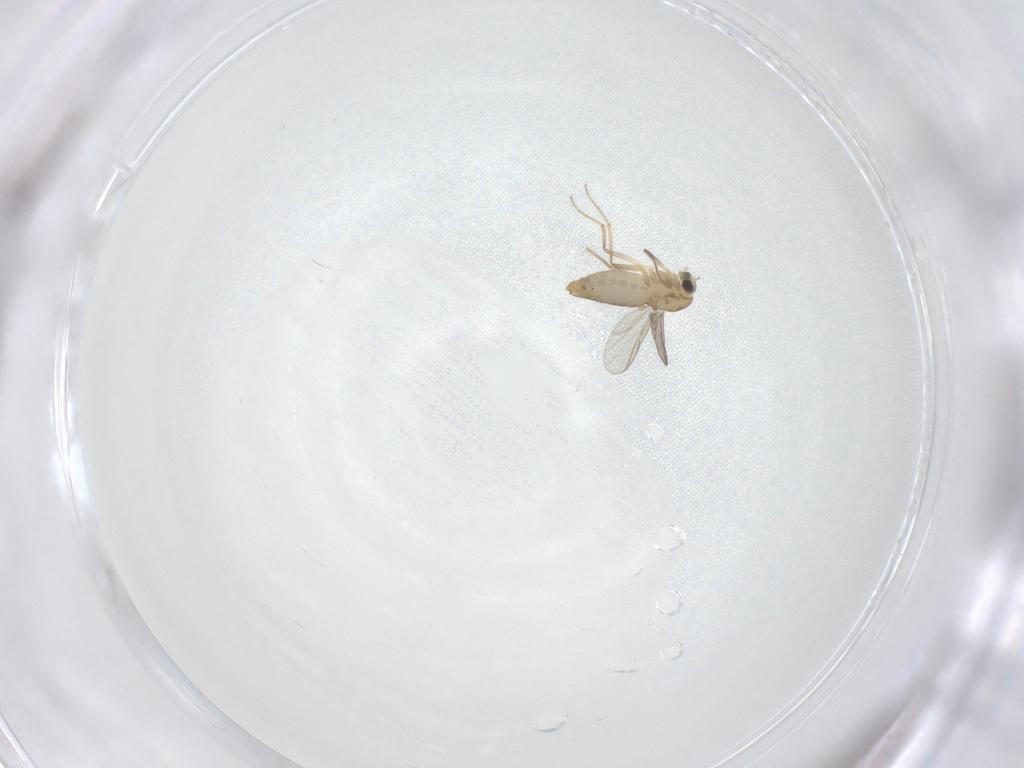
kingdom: Animalia
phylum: Arthropoda
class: Insecta
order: Diptera
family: Chironomidae
